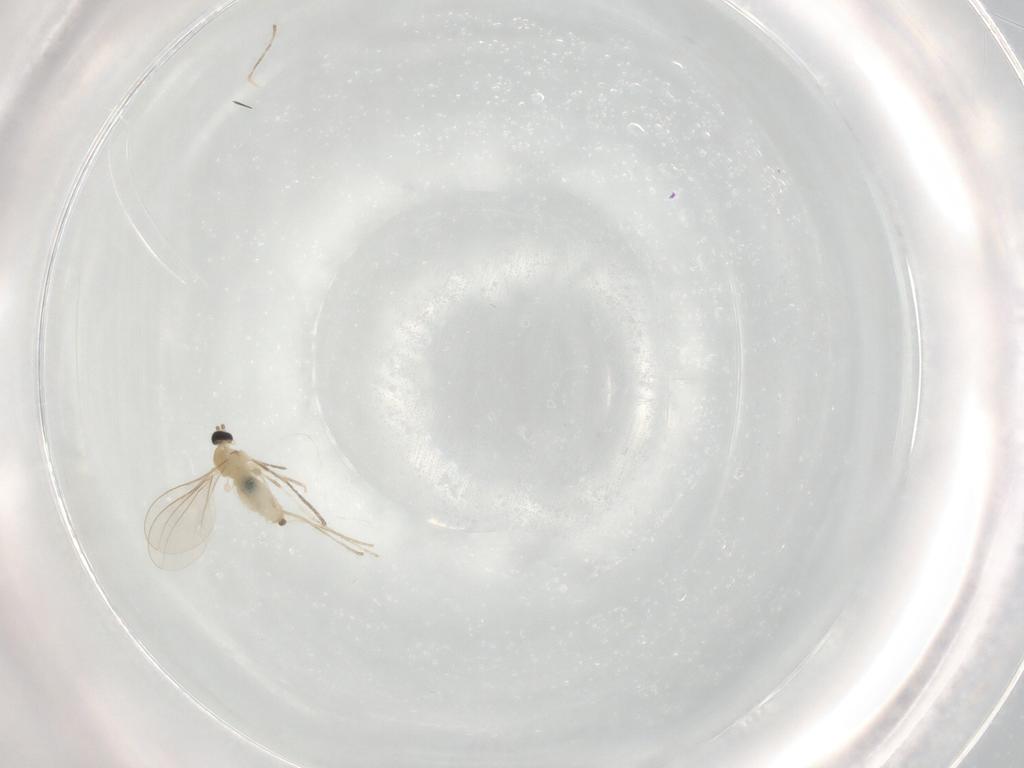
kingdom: Animalia
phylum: Arthropoda
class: Insecta
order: Diptera
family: Cecidomyiidae
